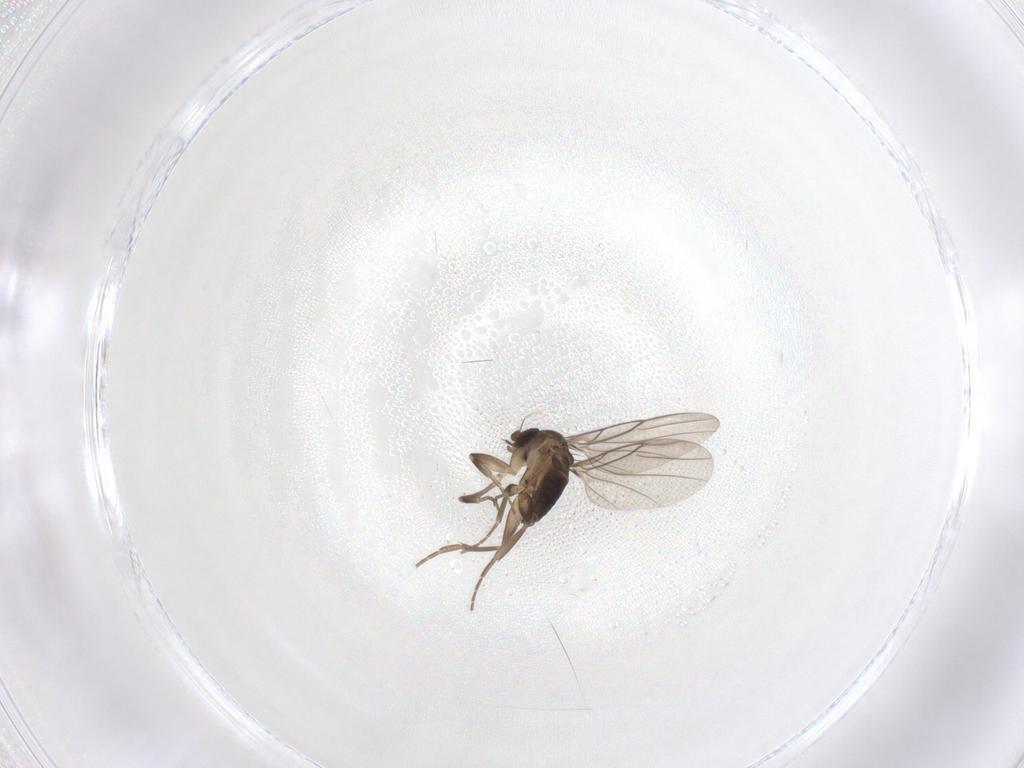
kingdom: Animalia
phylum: Arthropoda
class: Insecta
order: Diptera
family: Phoridae
